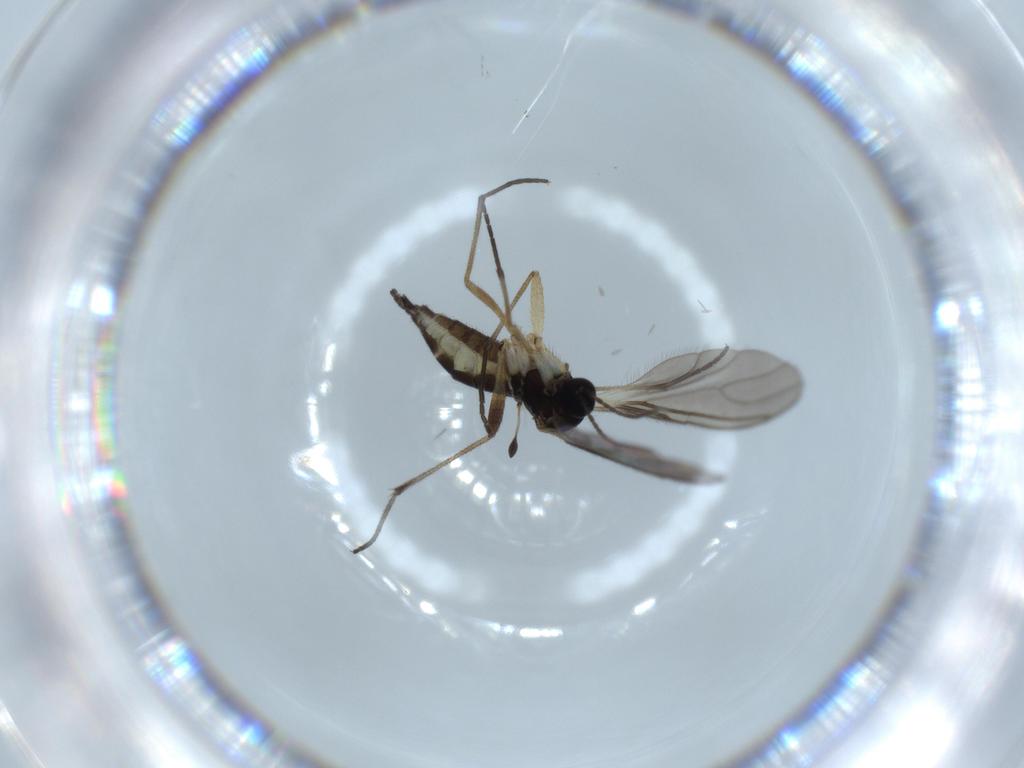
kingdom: Animalia
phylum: Arthropoda
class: Insecta
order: Diptera
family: Sciaridae
